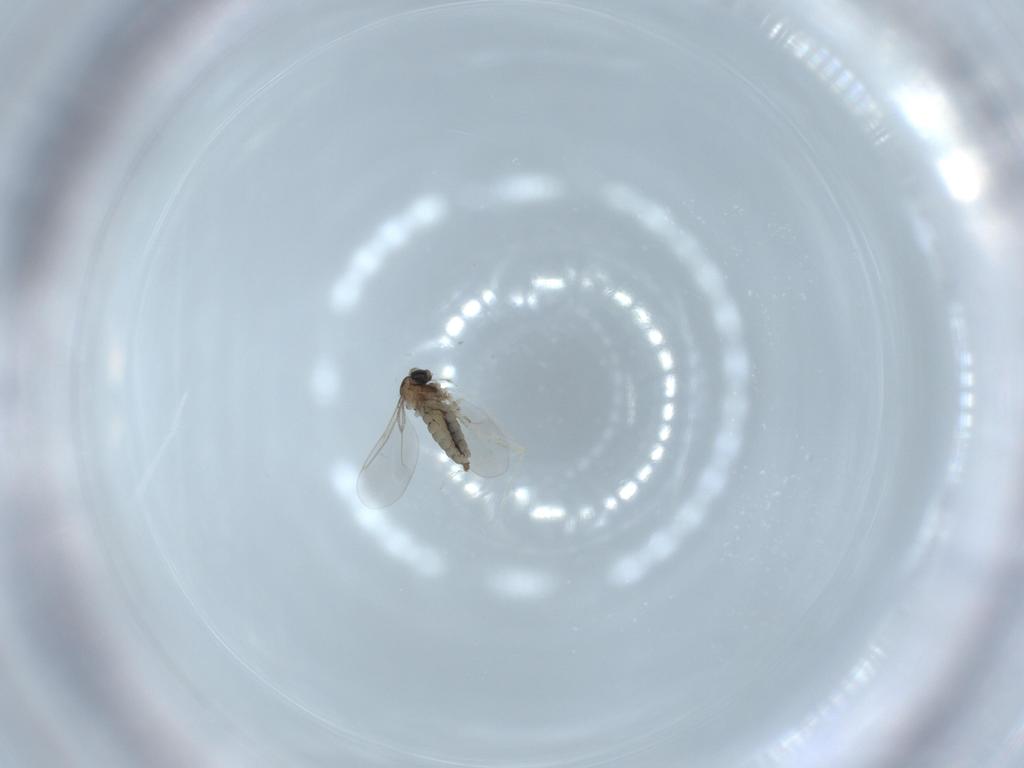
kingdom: Animalia
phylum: Arthropoda
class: Insecta
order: Diptera
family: Cecidomyiidae
